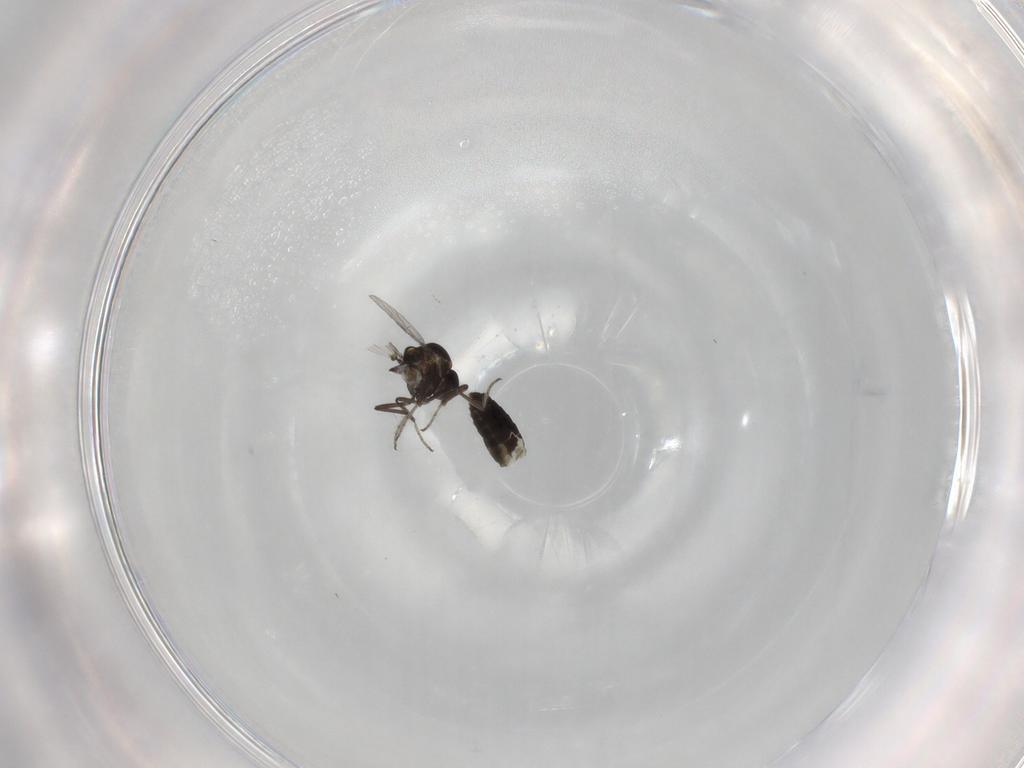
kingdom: Animalia
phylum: Arthropoda
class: Insecta
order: Diptera
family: Ceratopogonidae
